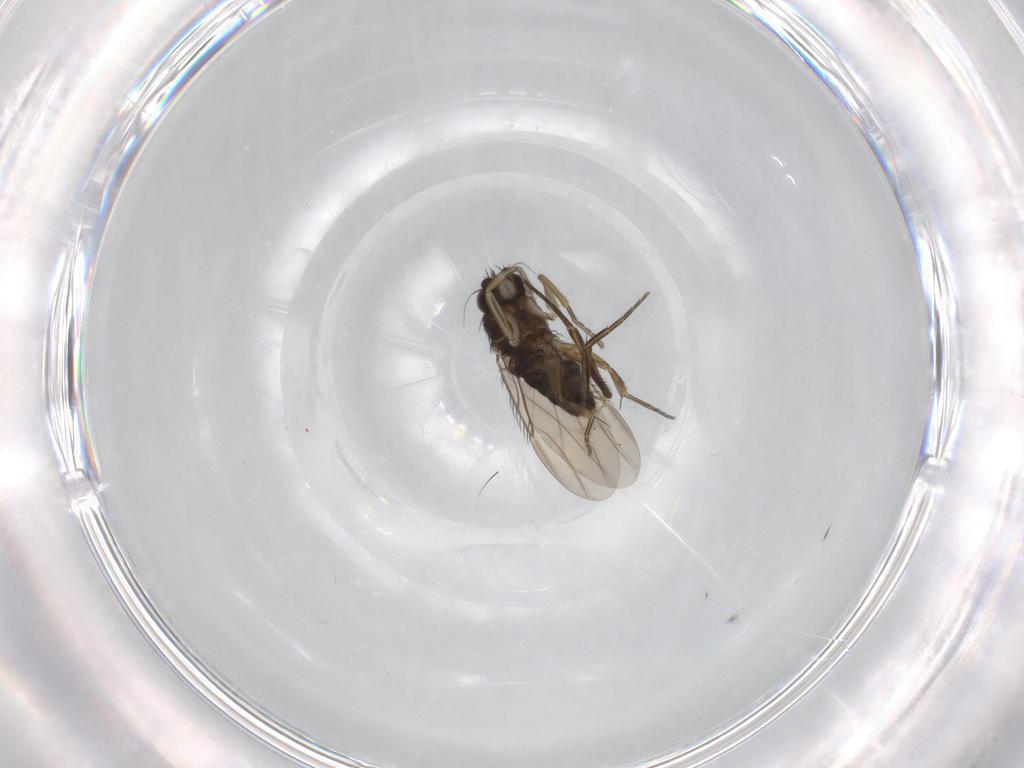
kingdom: Animalia
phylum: Arthropoda
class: Insecta
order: Diptera
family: Phoridae
